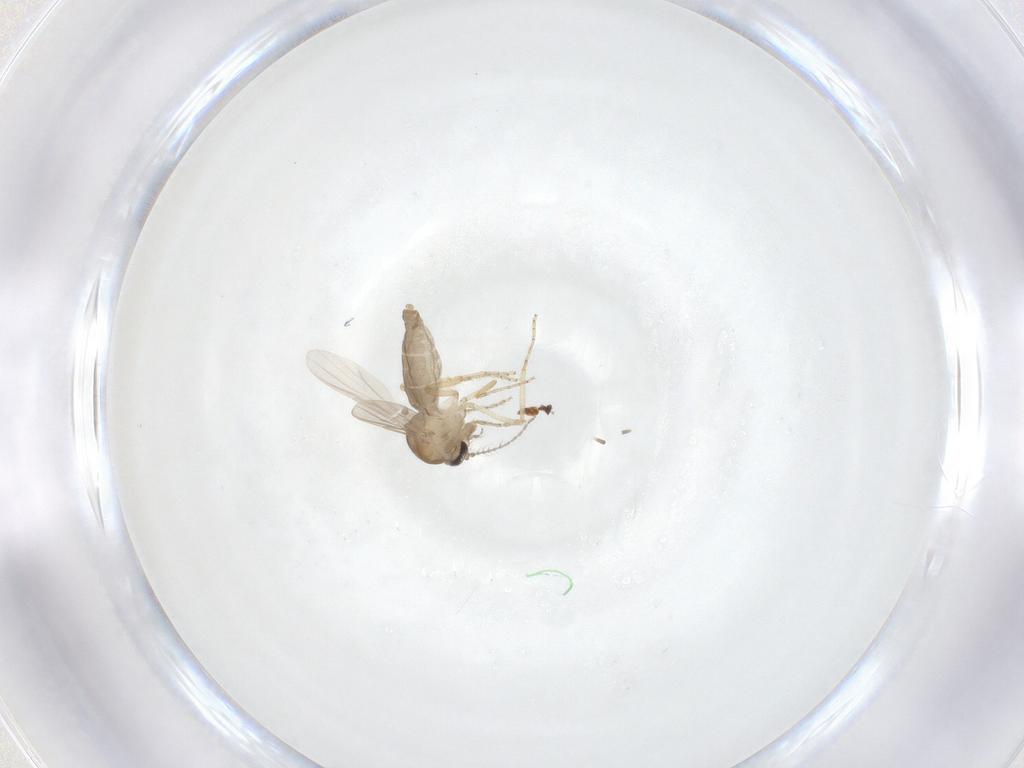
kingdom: Animalia
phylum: Arthropoda
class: Insecta
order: Diptera
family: Ceratopogonidae
